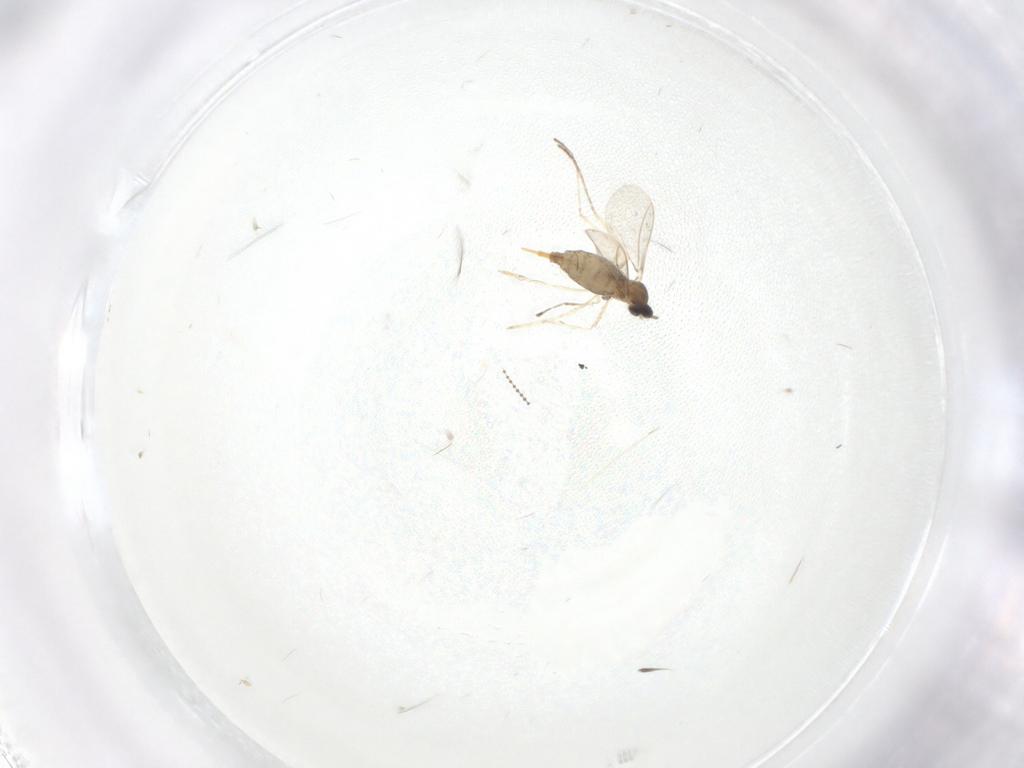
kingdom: Animalia
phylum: Arthropoda
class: Insecta
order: Diptera
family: Cecidomyiidae
